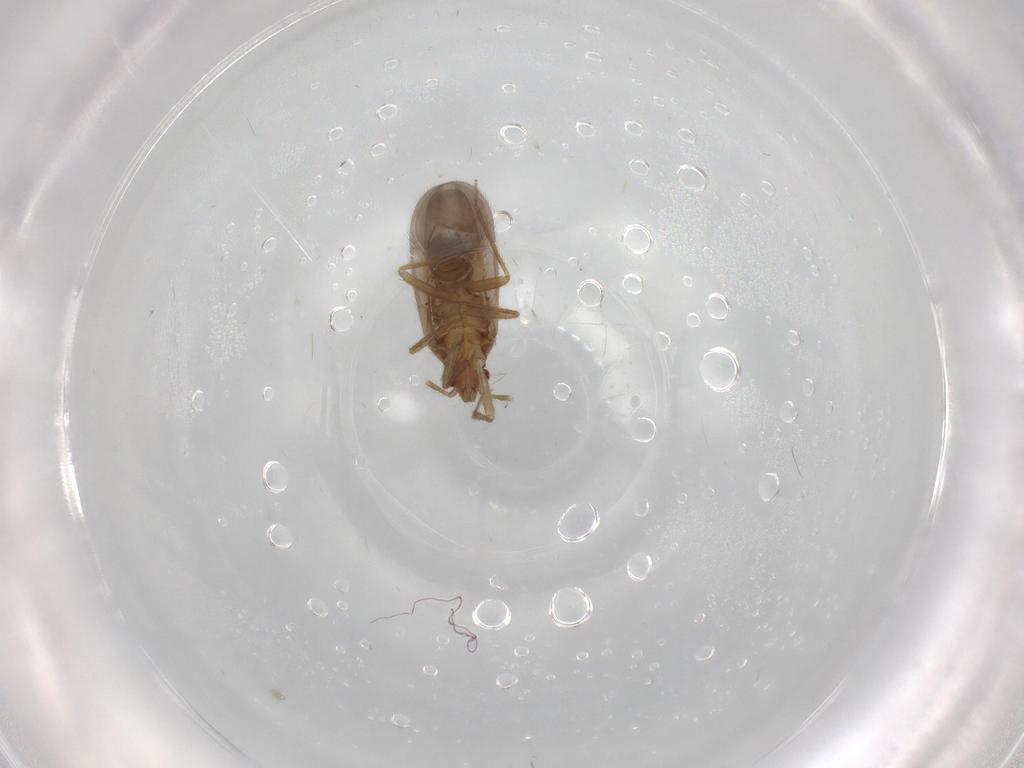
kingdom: Animalia
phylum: Arthropoda
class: Insecta
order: Hemiptera
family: Ceratocombidae
